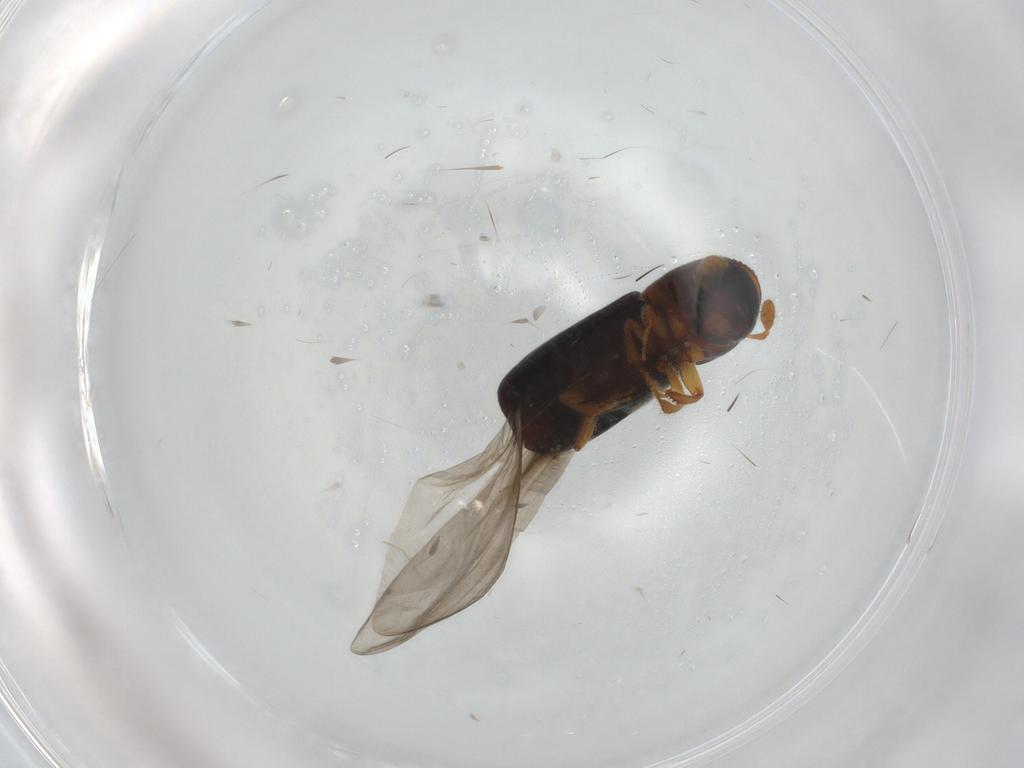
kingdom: Animalia
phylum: Arthropoda
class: Insecta
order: Coleoptera
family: Curculionidae
